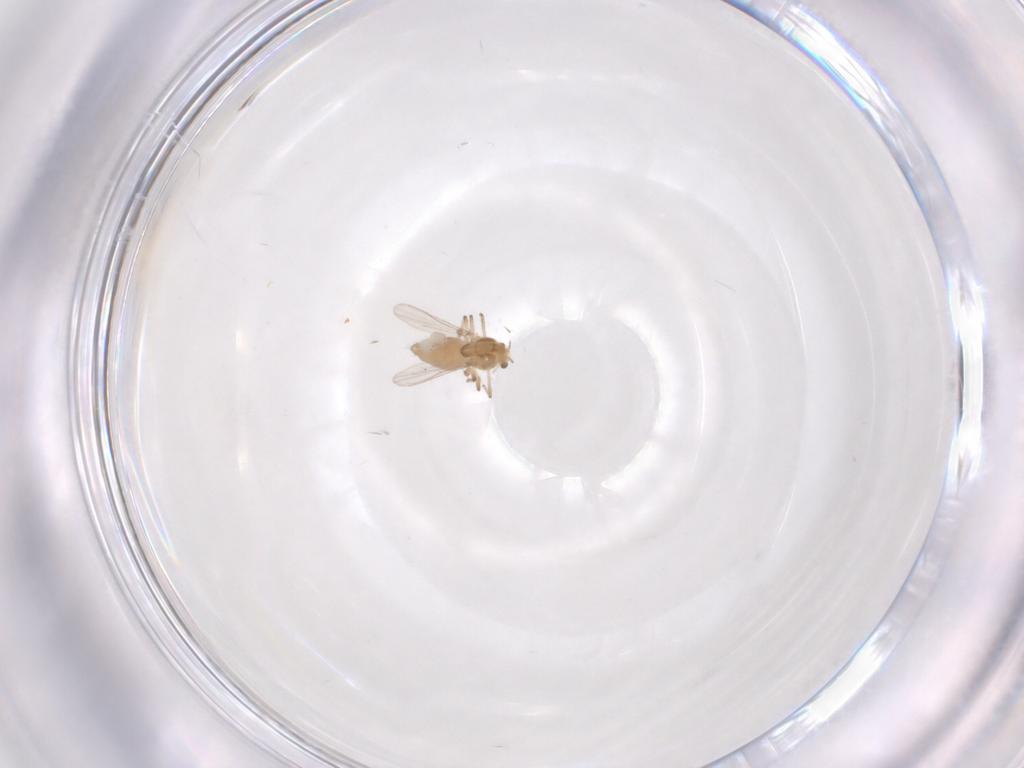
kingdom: Animalia
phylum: Arthropoda
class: Insecta
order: Diptera
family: Chironomidae
